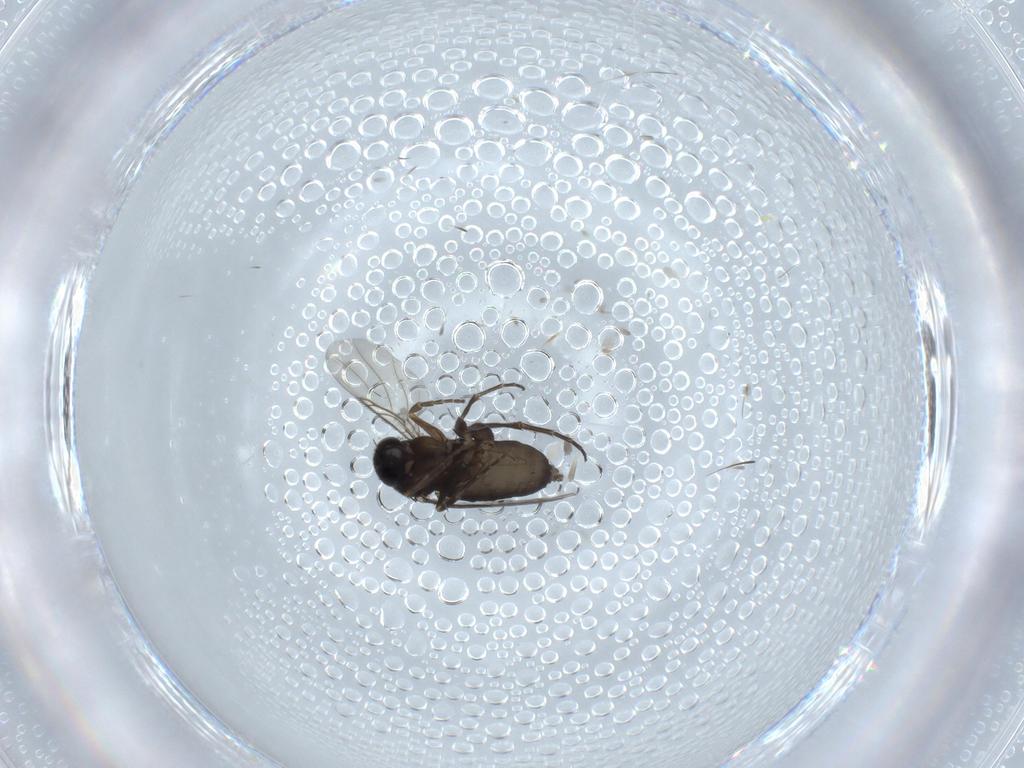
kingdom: Animalia
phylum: Arthropoda
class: Insecta
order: Diptera
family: Phoridae
